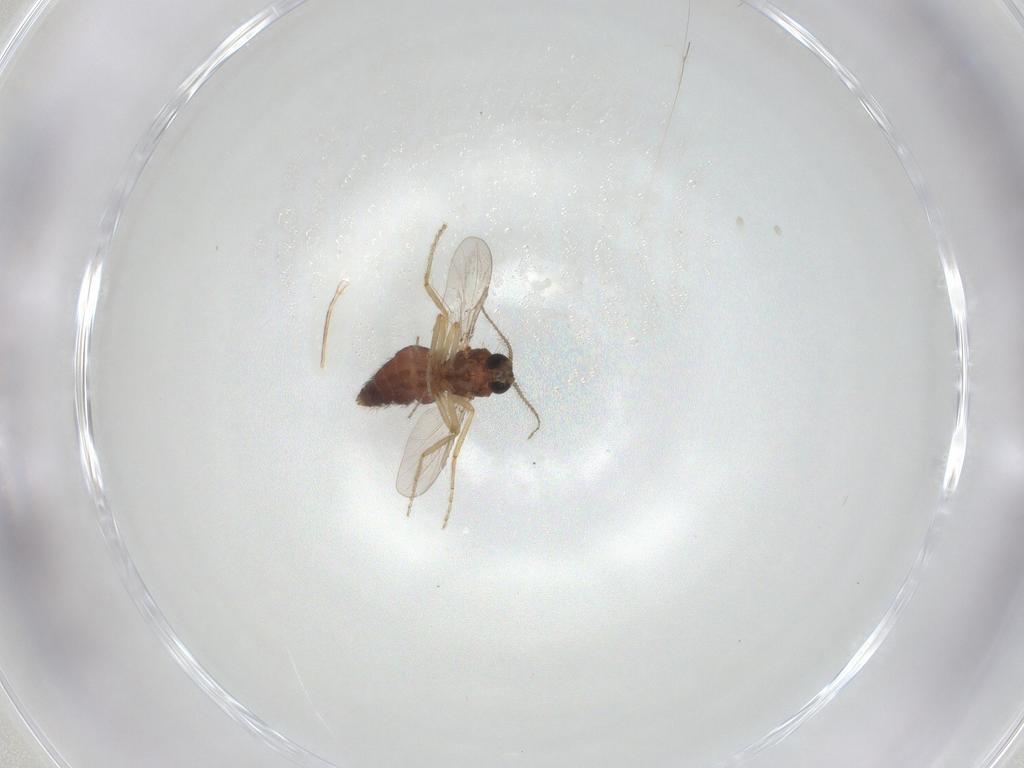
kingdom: Animalia
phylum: Arthropoda
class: Insecta
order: Diptera
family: Ceratopogonidae
